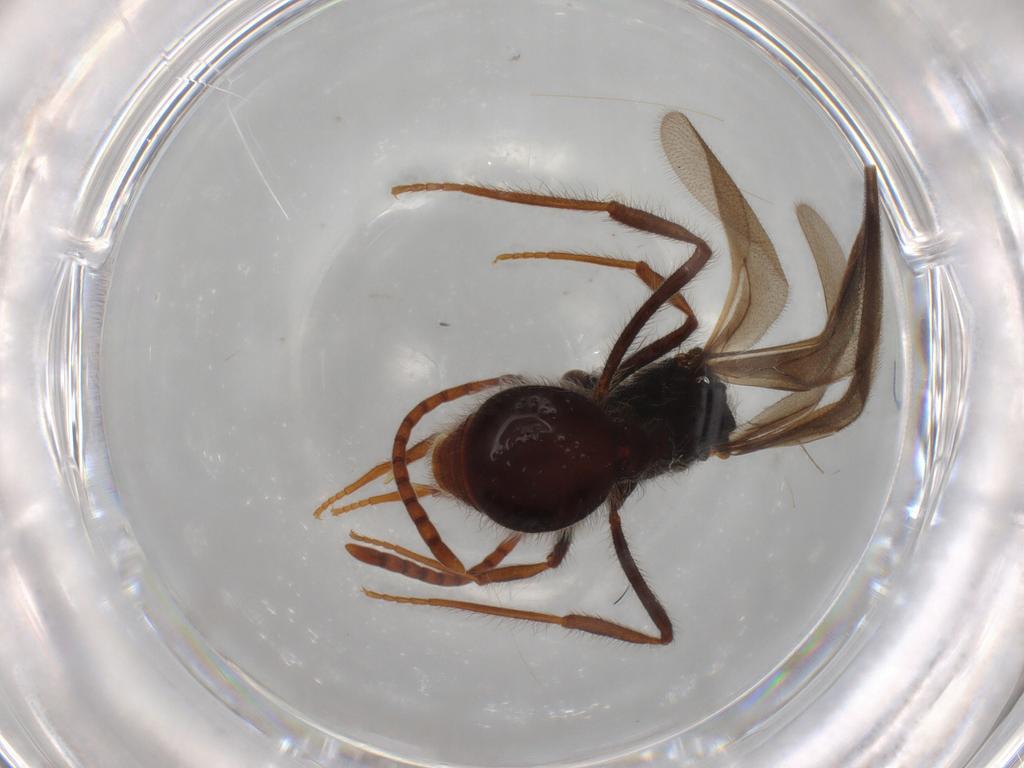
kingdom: Animalia
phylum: Arthropoda
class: Insecta
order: Hymenoptera
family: Formicidae
